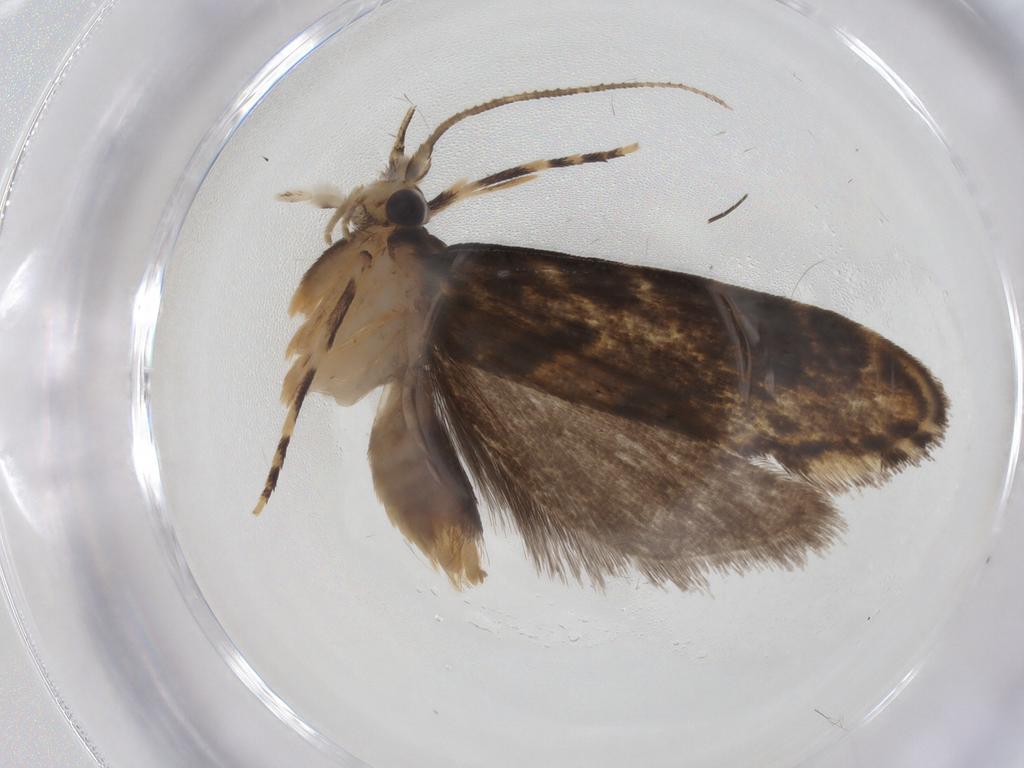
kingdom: Animalia
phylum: Arthropoda
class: Insecta
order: Lepidoptera
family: Dryadaulidae
